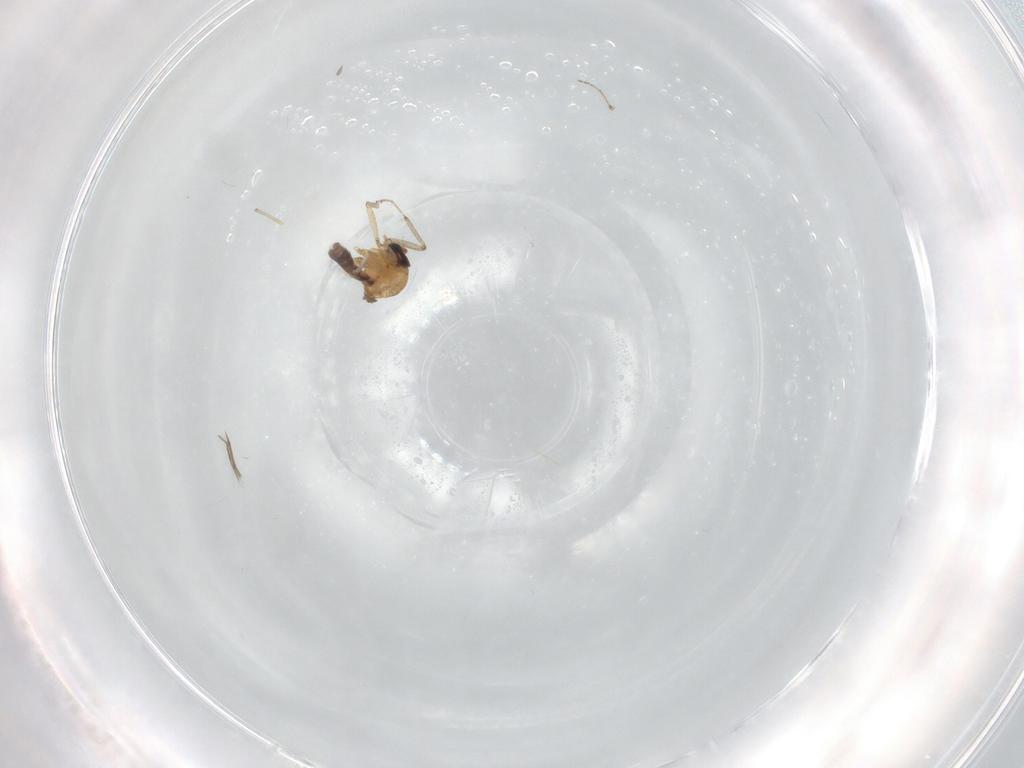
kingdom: Animalia
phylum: Arthropoda
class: Insecta
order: Diptera
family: Ceratopogonidae
